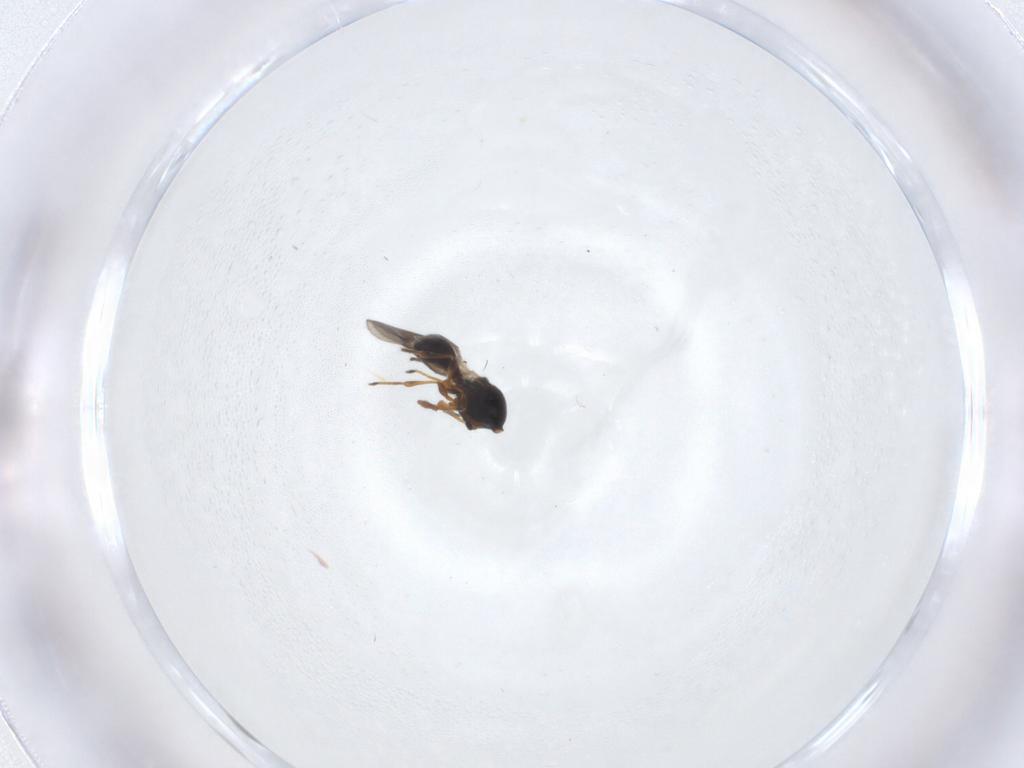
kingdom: Animalia
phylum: Arthropoda
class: Insecta
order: Hymenoptera
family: Platygastridae
